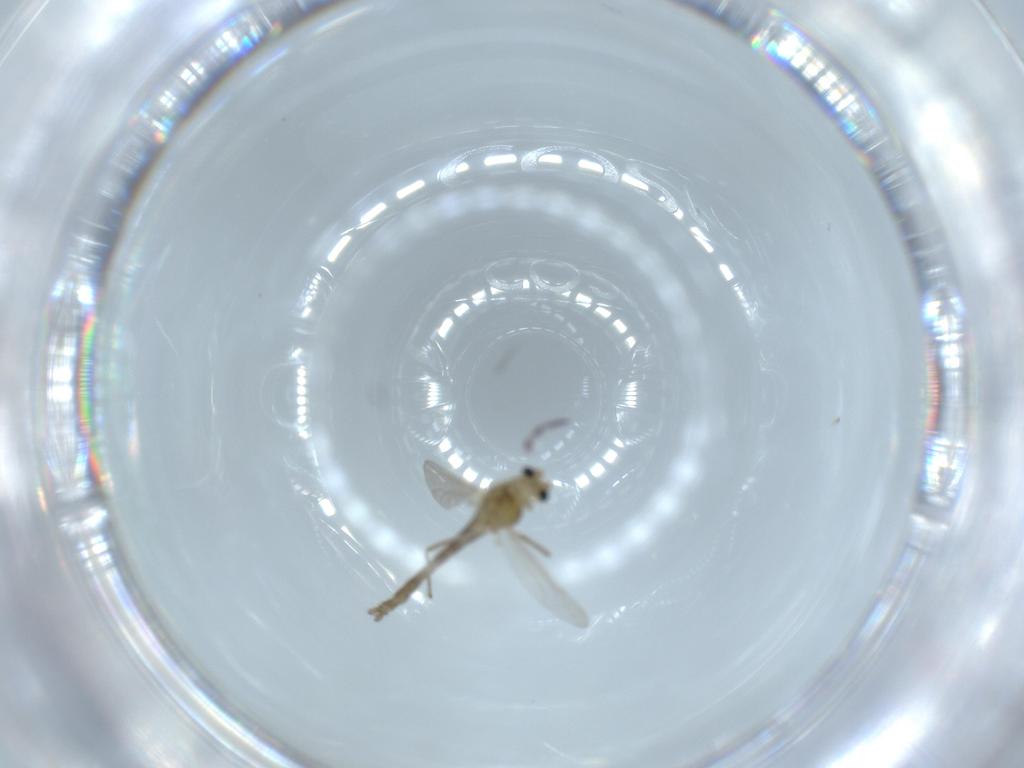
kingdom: Animalia
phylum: Arthropoda
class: Insecta
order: Diptera
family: Chironomidae
